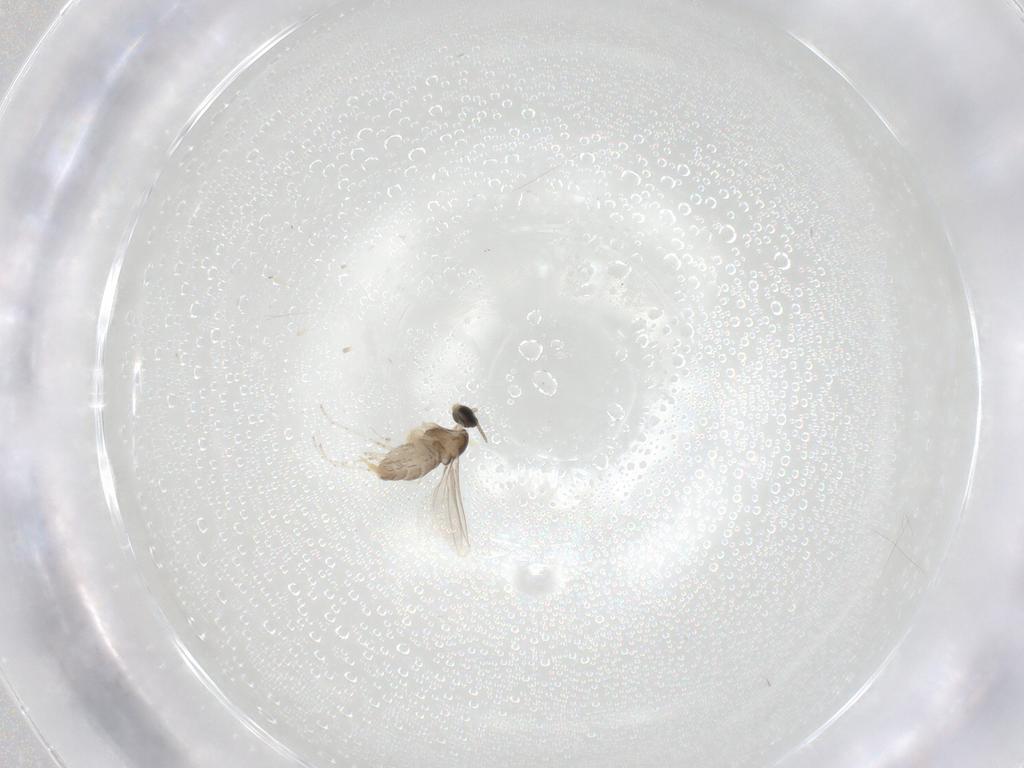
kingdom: Animalia
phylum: Arthropoda
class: Insecta
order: Diptera
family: Cecidomyiidae
